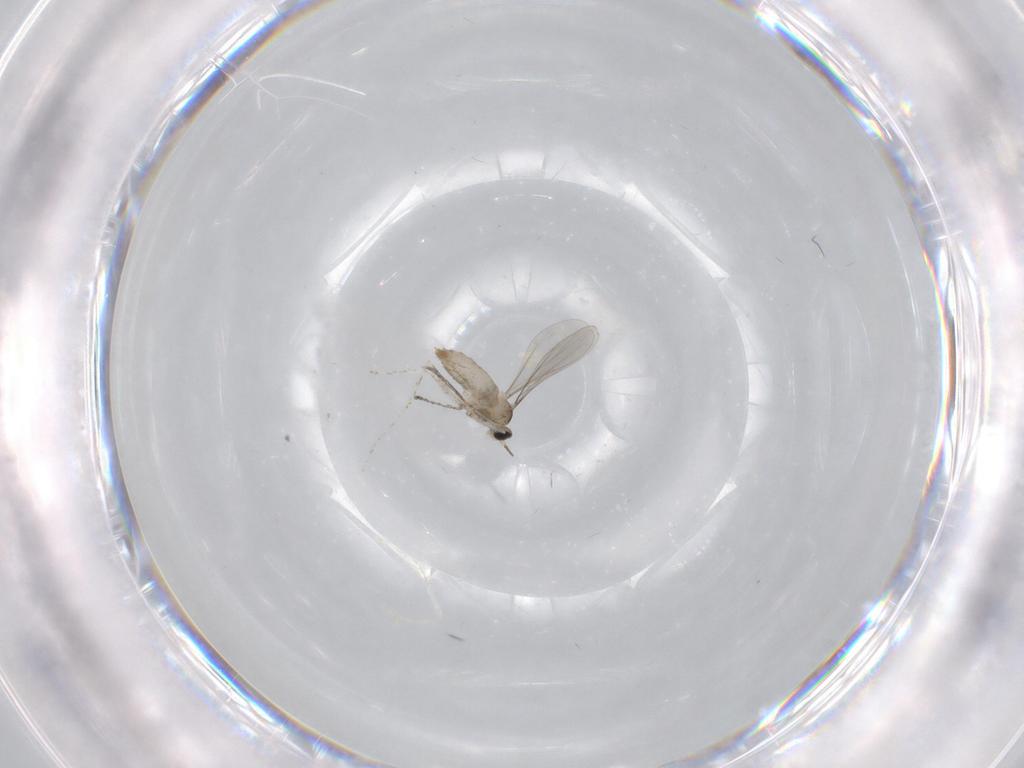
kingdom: Animalia
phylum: Arthropoda
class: Insecta
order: Diptera
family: Cecidomyiidae
